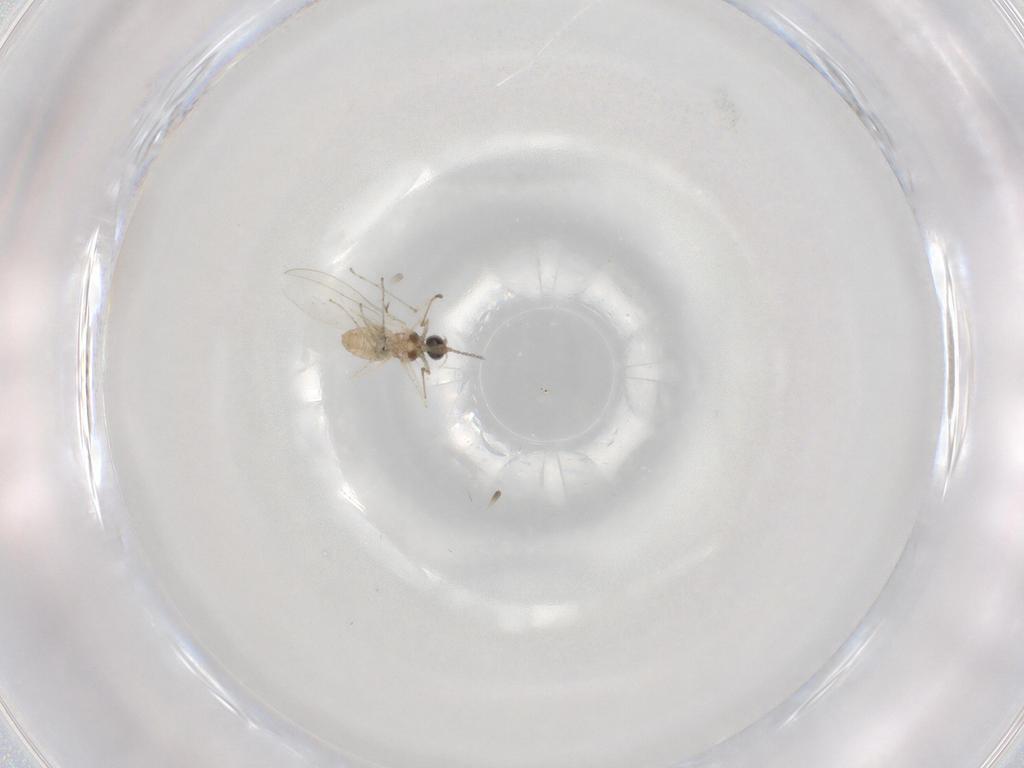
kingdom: Animalia
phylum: Arthropoda
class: Insecta
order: Diptera
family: Cecidomyiidae
